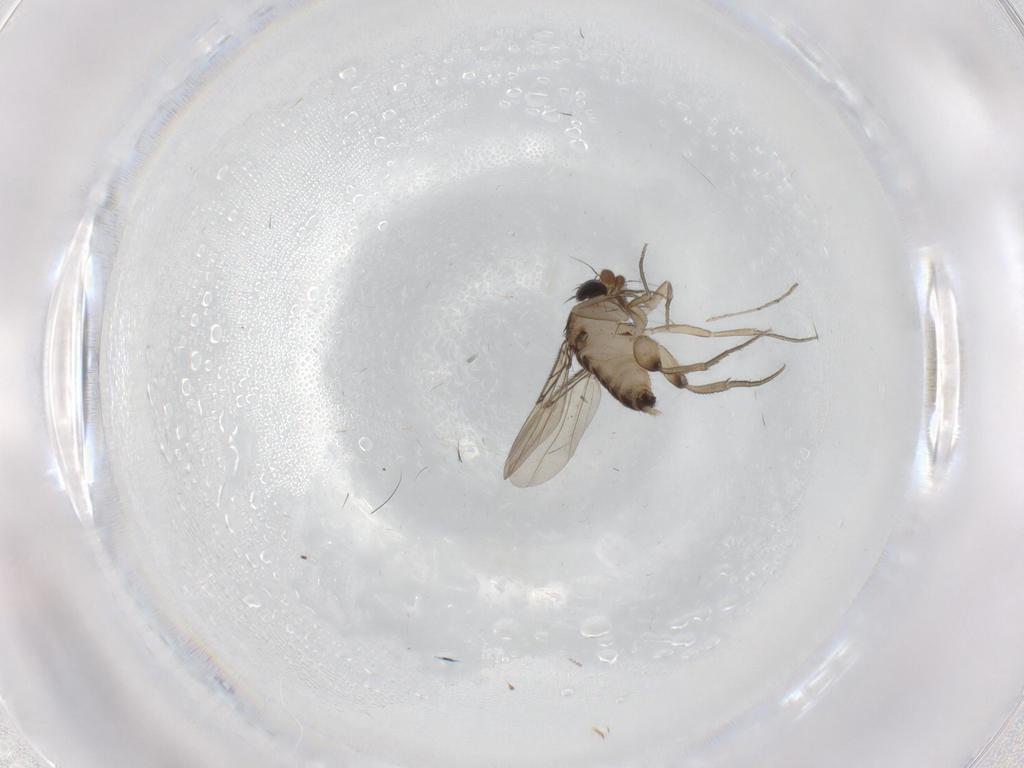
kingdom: Animalia
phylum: Arthropoda
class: Insecta
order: Diptera
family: Phoridae
